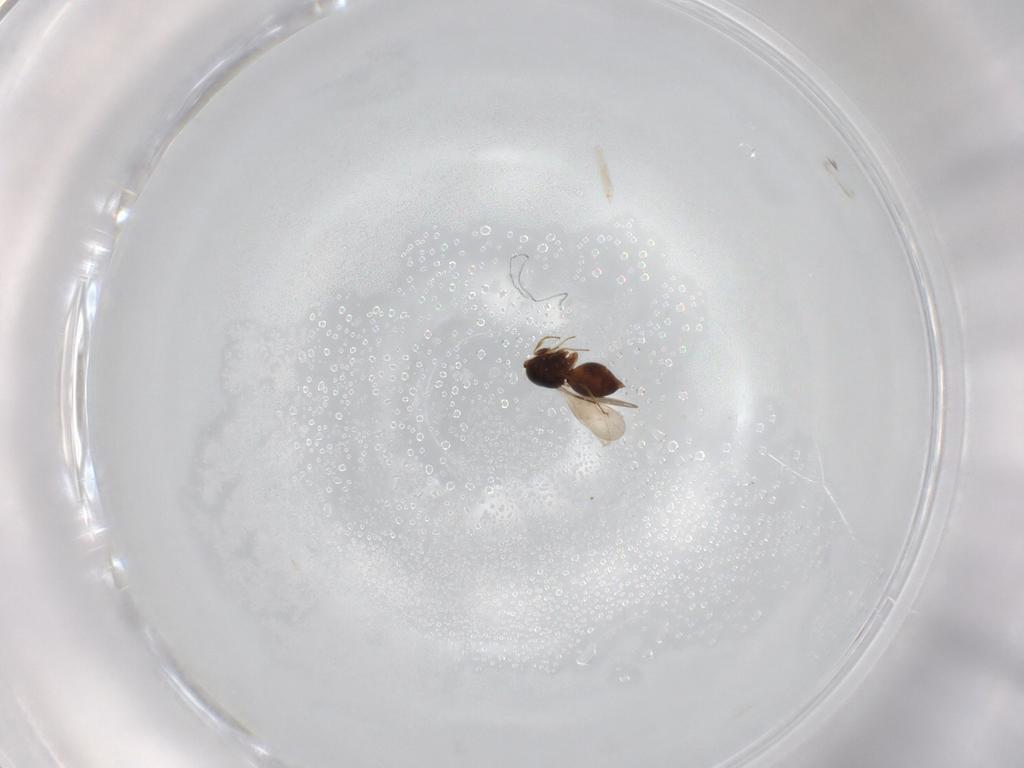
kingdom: Animalia
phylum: Arthropoda
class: Insecta
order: Hymenoptera
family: Ceraphronidae
